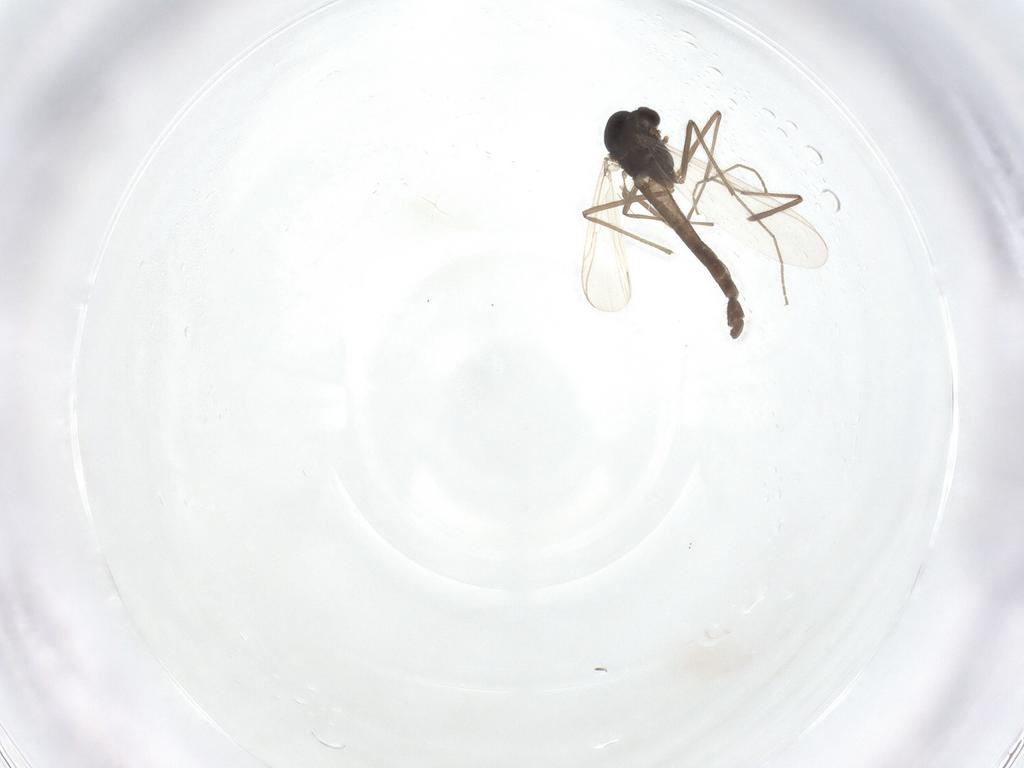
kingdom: Animalia
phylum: Arthropoda
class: Insecta
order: Diptera
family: Chironomidae
